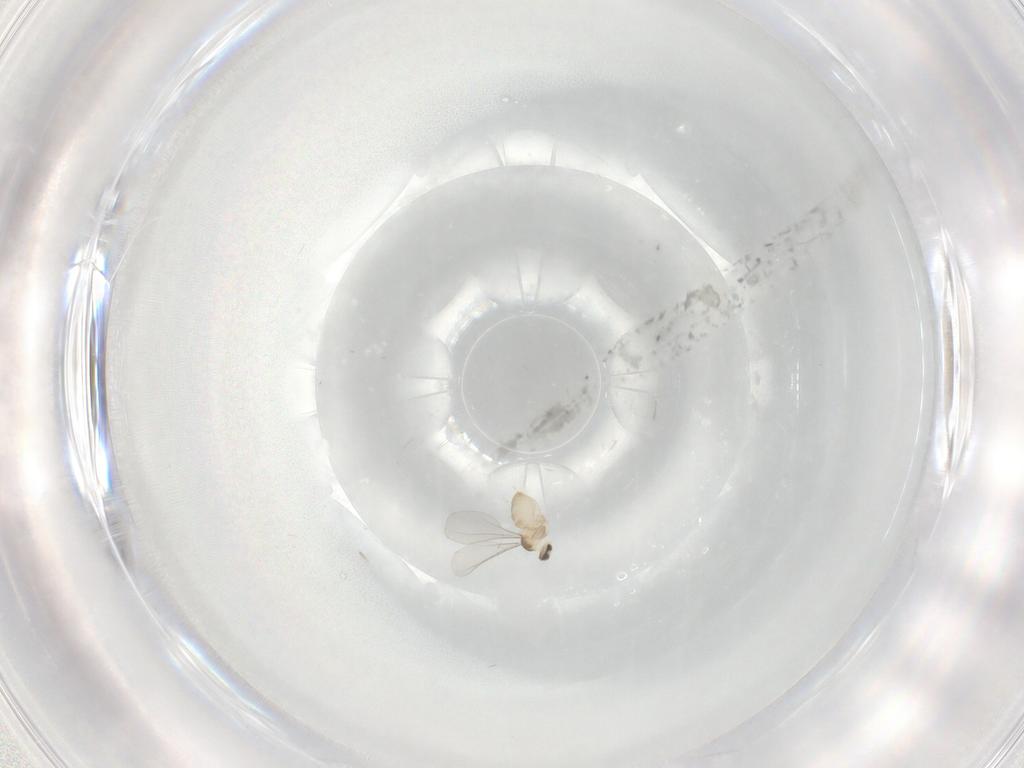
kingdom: Animalia
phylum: Arthropoda
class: Insecta
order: Diptera
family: Cecidomyiidae
